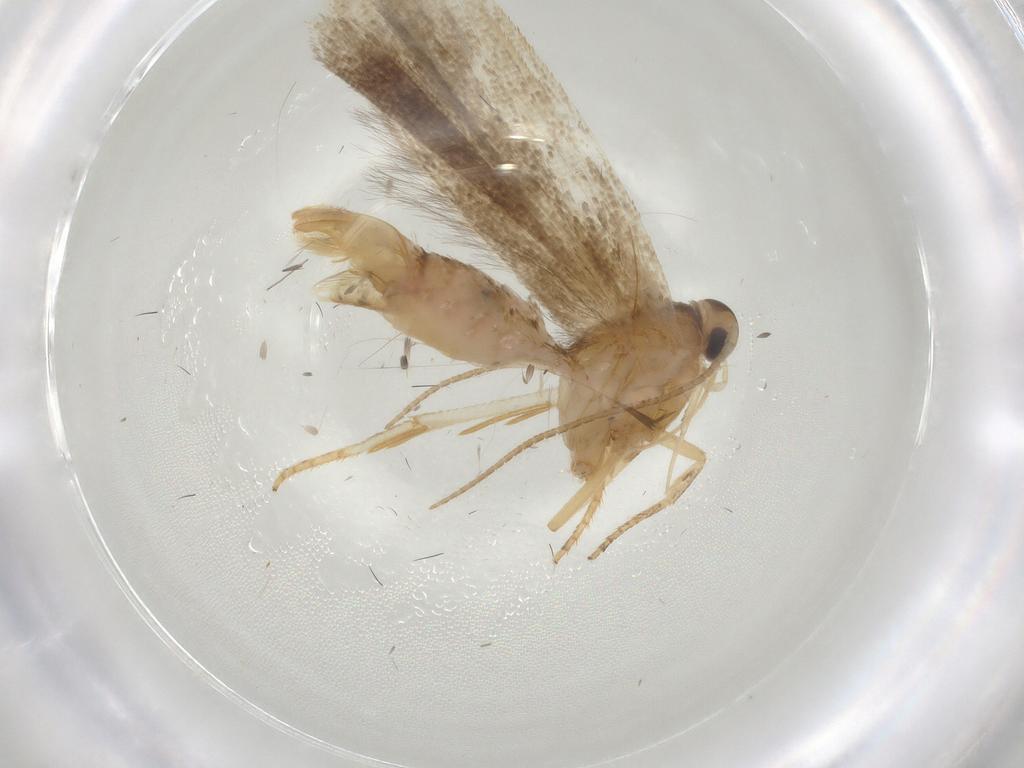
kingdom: Animalia
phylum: Arthropoda
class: Insecta
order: Lepidoptera
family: Crambidae
